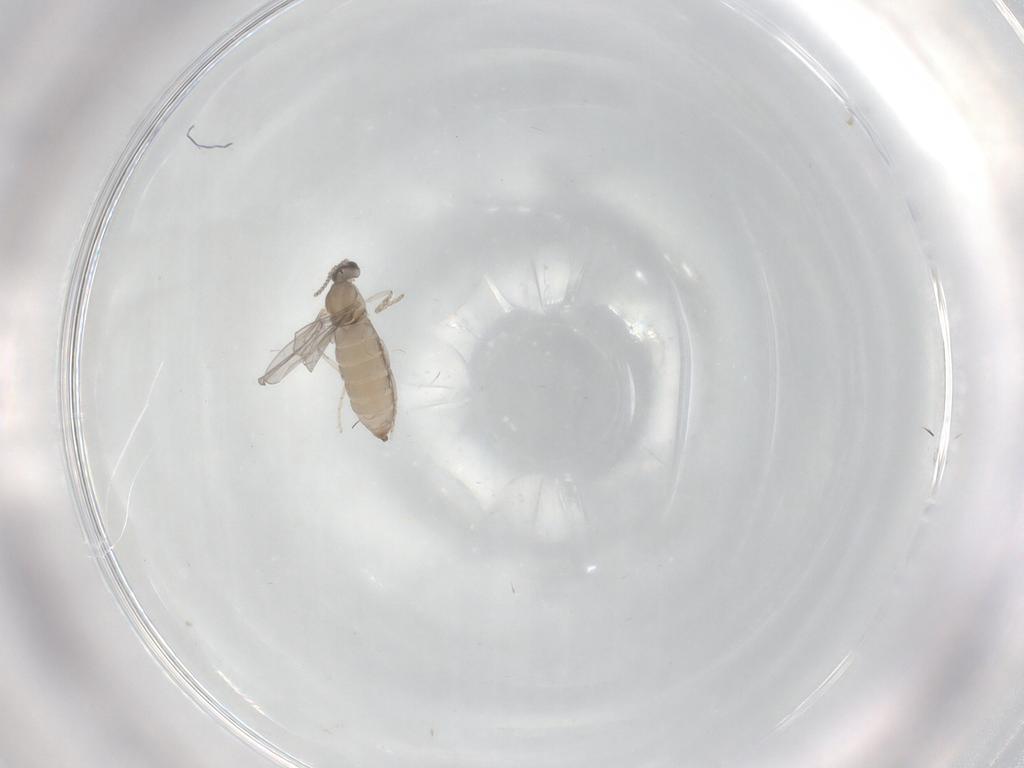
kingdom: Animalia
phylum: Arthropoda
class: Insecta
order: Diptera
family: Cecidomyiidae
